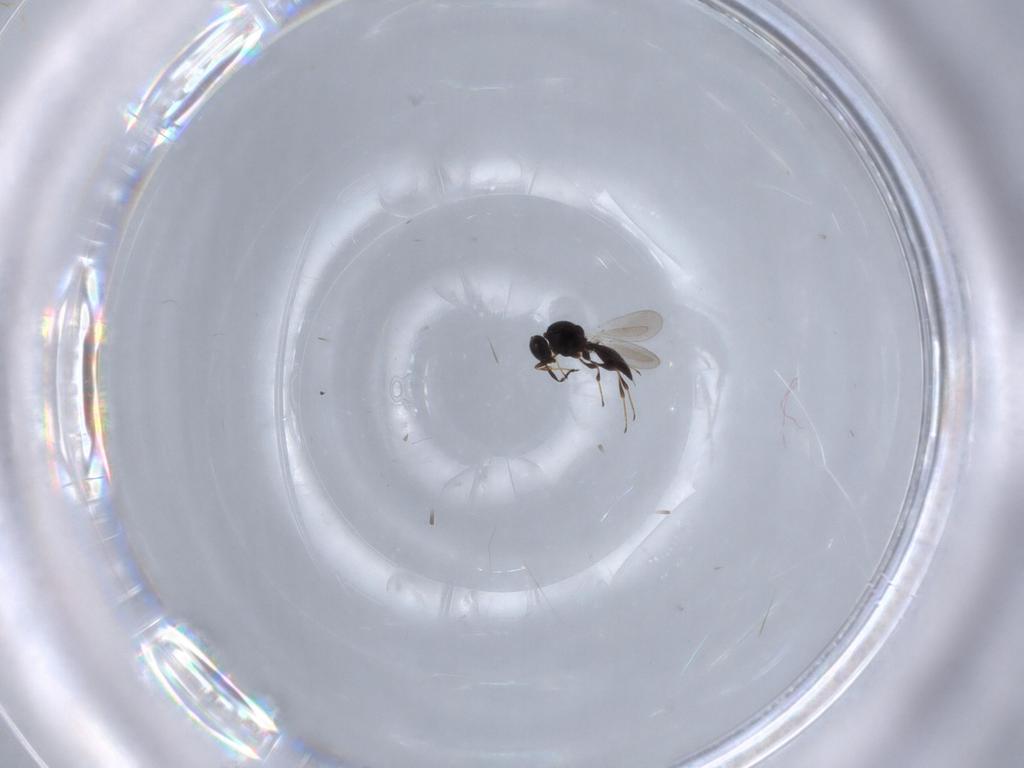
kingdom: Animalia
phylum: Arthropoda
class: Insecta
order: Hymenoptera
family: Platygastridae
